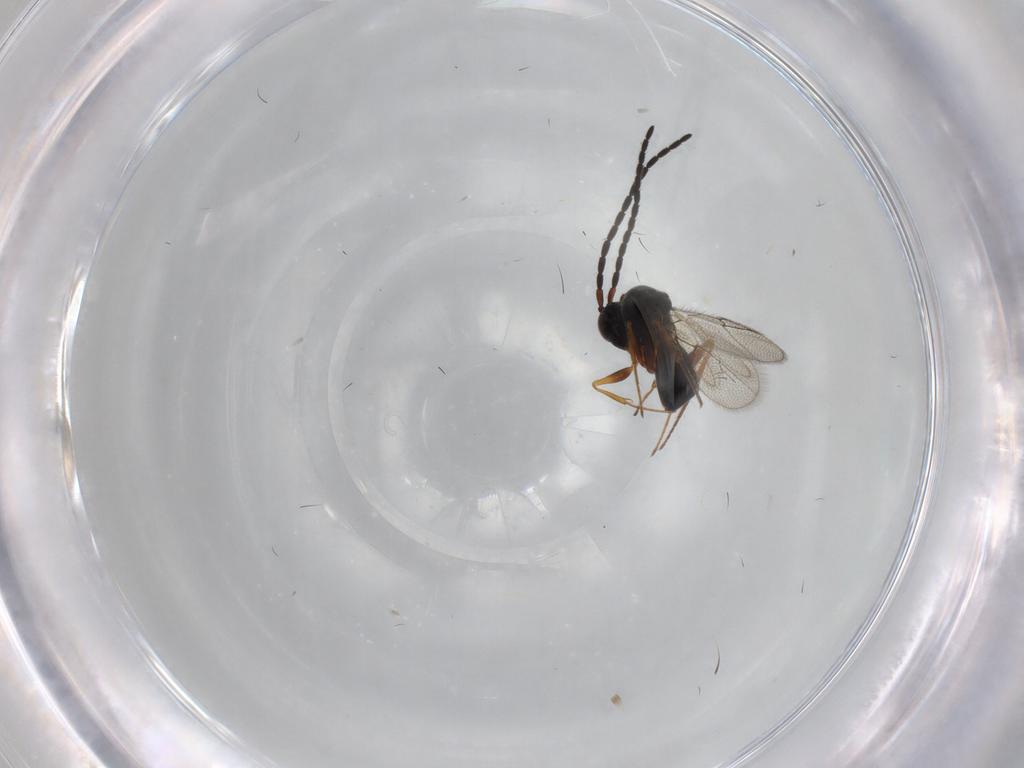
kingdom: Animalia
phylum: Arthropoda
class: Insecta
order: Hymenoptera
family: Figitidae
